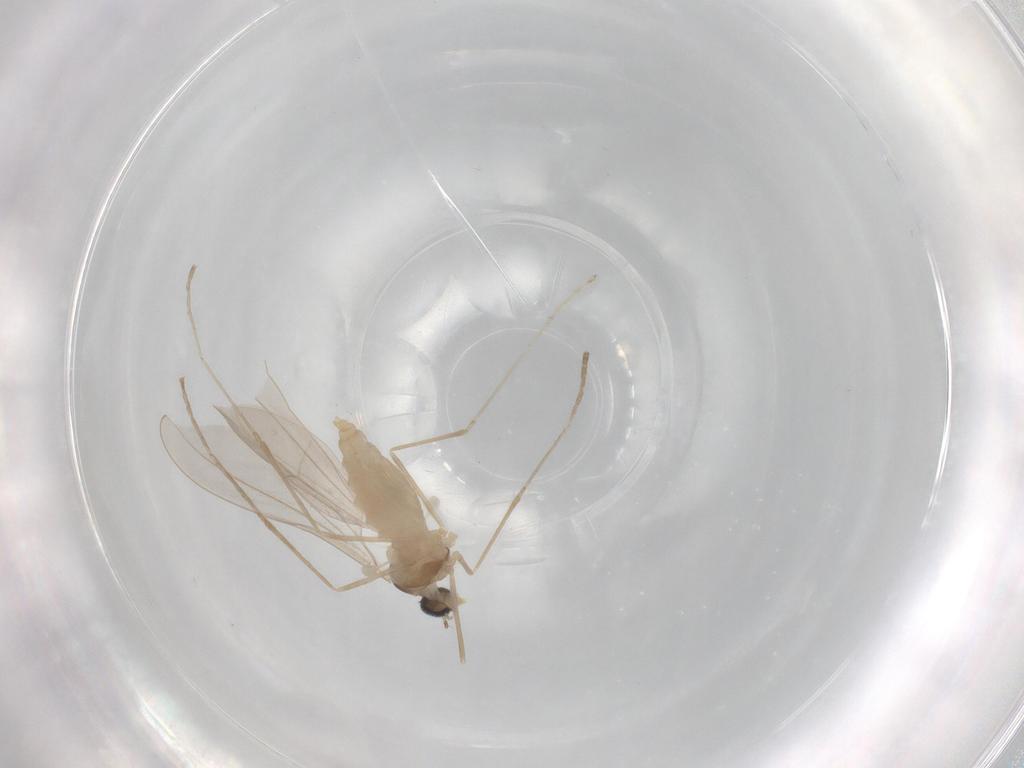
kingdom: Animalia
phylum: Arthropoda
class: Insecta
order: Diptera
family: Cecidomyiidae
